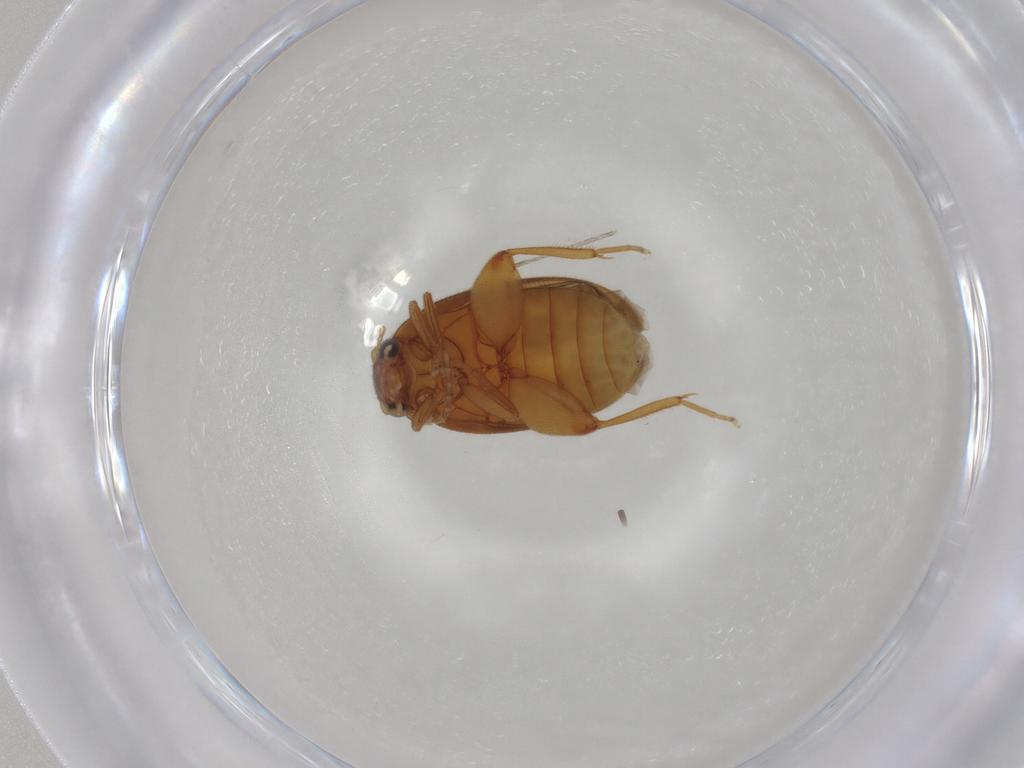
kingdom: Animalia
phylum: Arthropoda
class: Insecta
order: Coleoptera
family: Scirtidae
